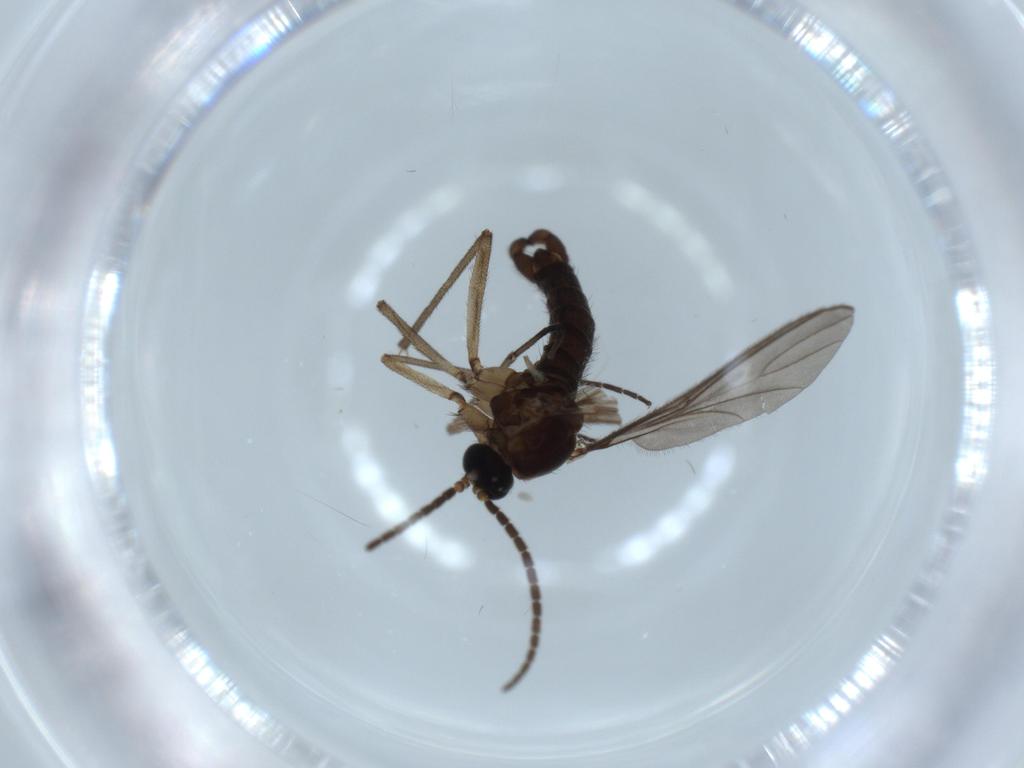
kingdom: Animalia
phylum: Arthropoda
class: Insecta
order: Diptera
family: Sciaridae
